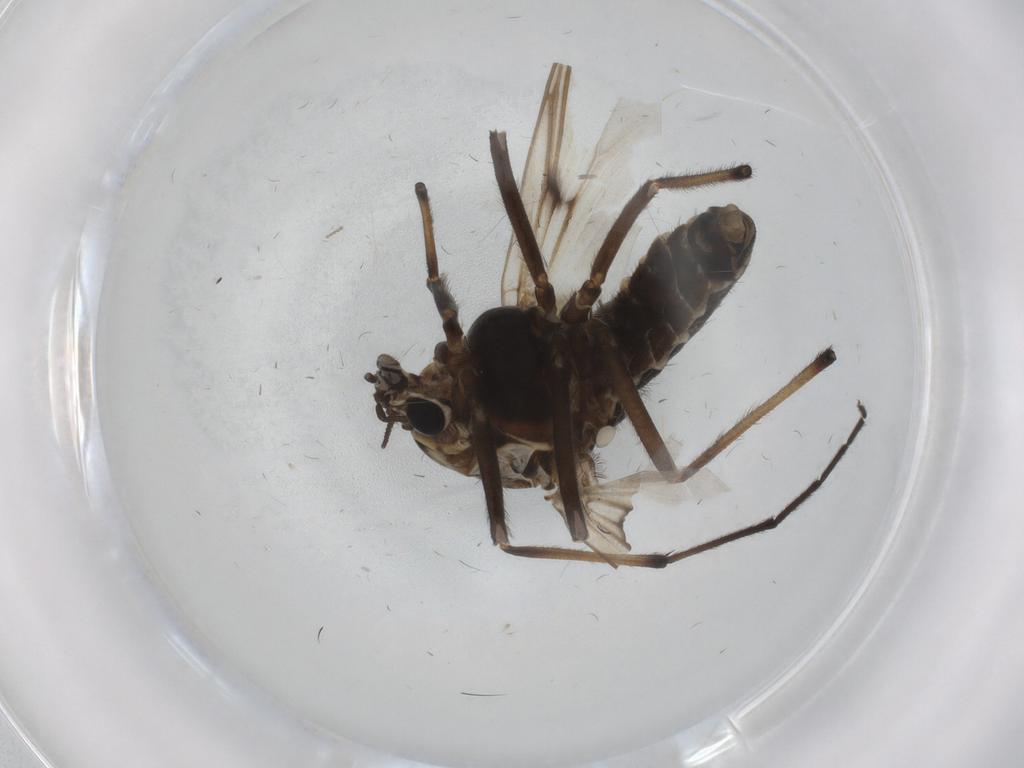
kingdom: Animalia
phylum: Arthropoda
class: Insecta
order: Diptera
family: Chironomidae
